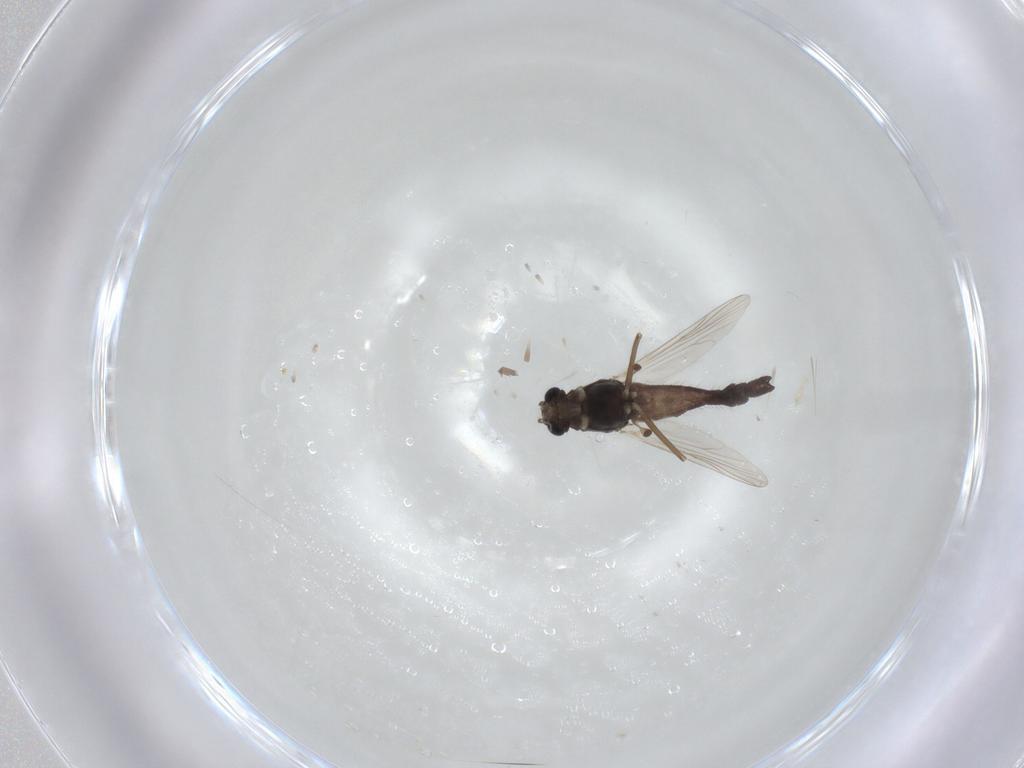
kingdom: Animalia
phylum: Arthropoda
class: Insecta
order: Diptera
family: Chironomidae
